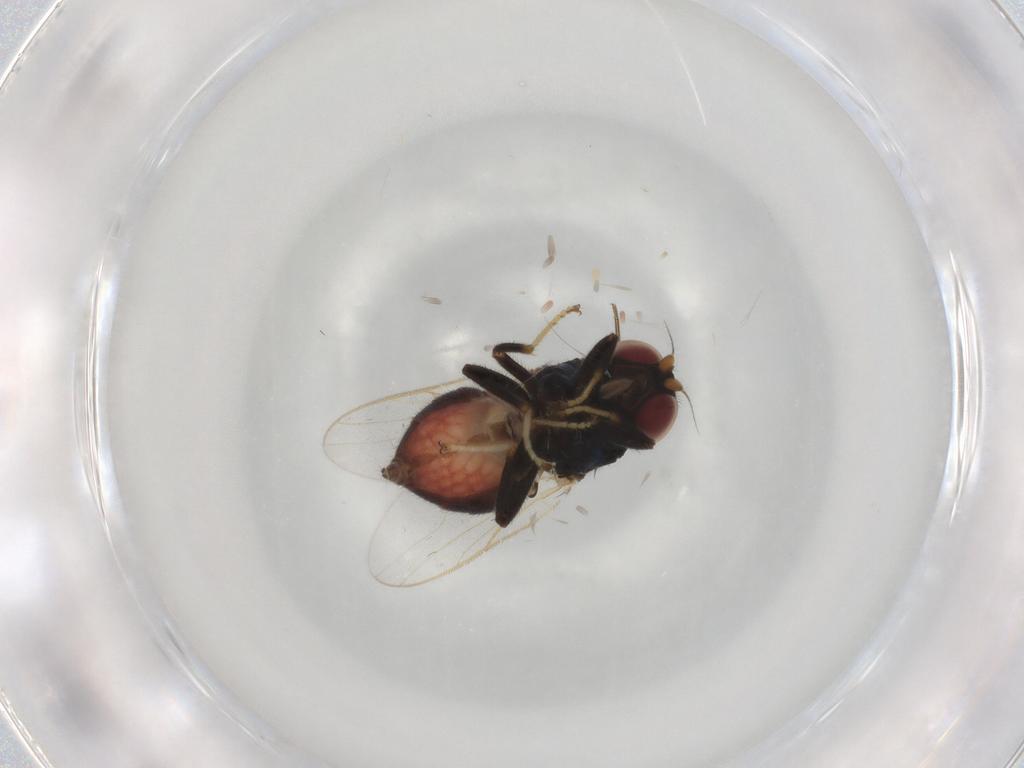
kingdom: Animalia
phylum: Arthropoda
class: Insecta
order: Diptera
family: Chloropidae
